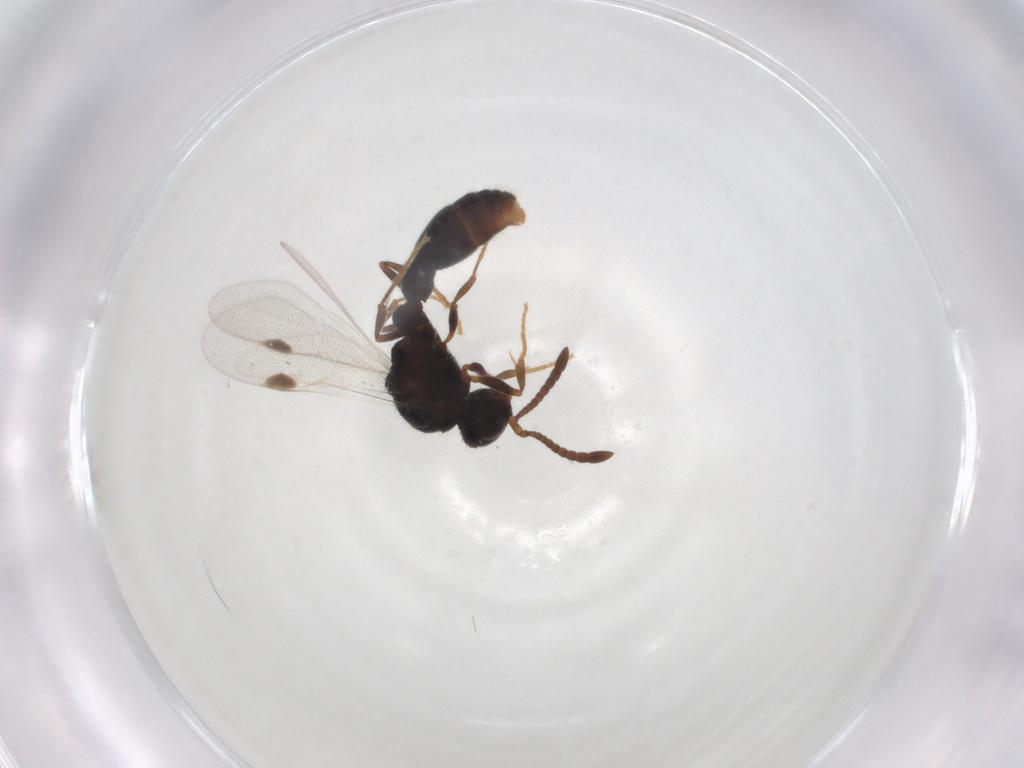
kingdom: Animalia
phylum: Arthropoda
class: Insecta
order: Hymenoptera
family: Formicidae
